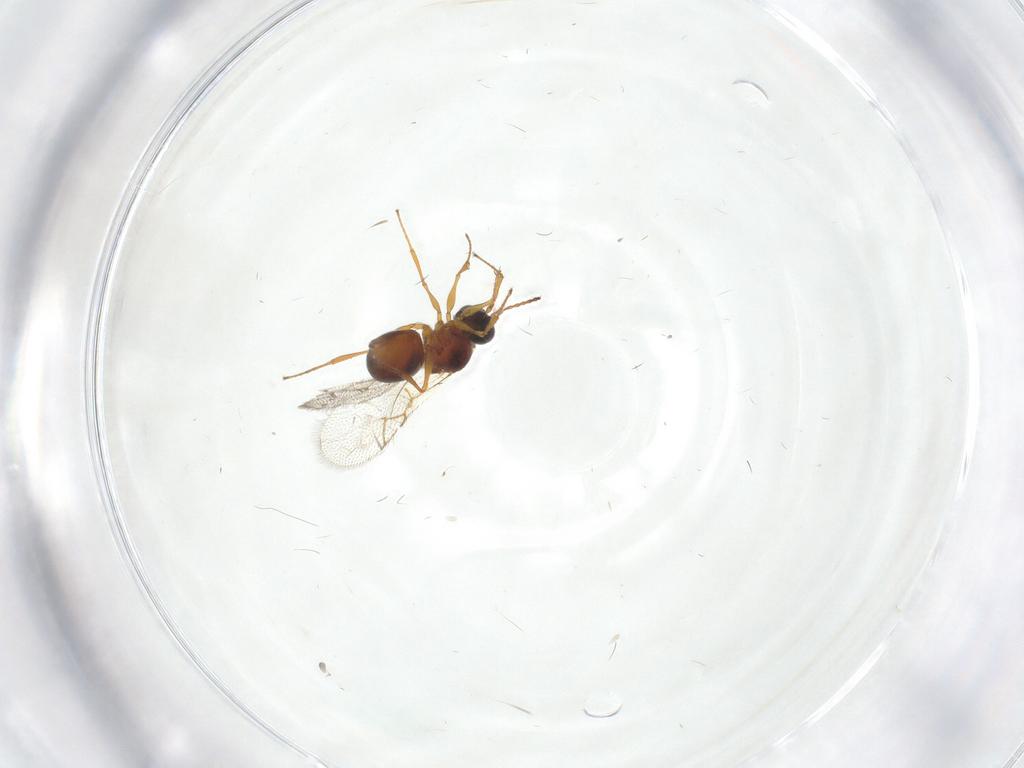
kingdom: Animalia
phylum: Arthropoda
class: Insecta
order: Hymenoptera
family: Figitidae
